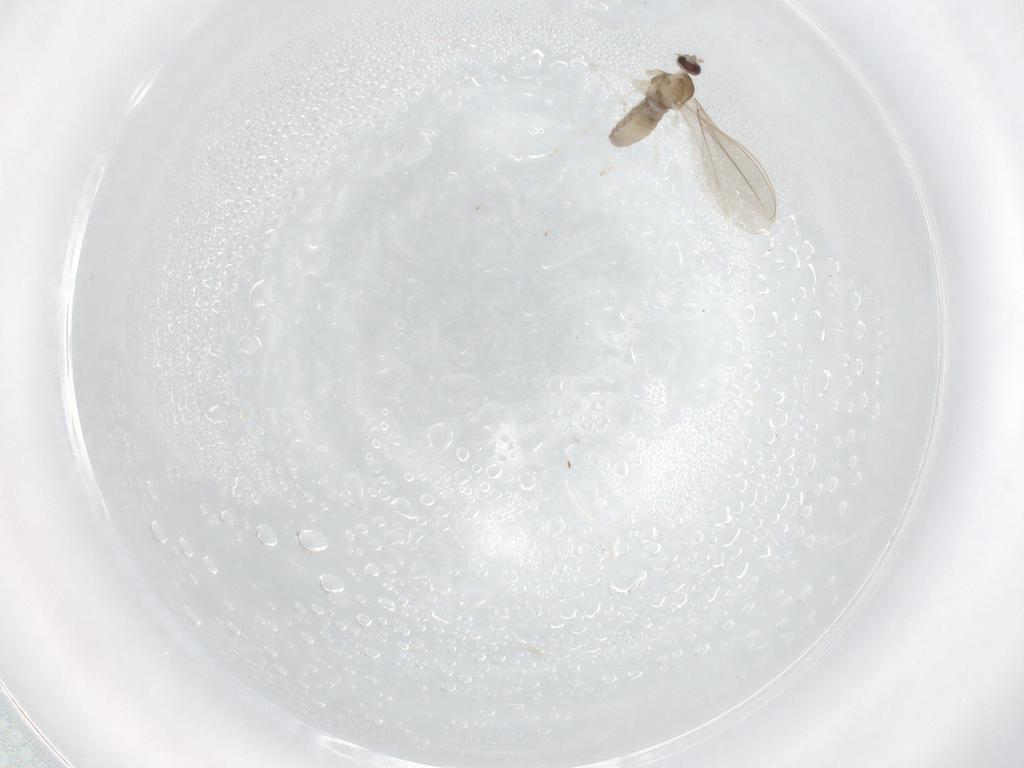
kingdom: Animalia
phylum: Arthropoda
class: Insecta
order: Diptera
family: Cecidomyiidae
